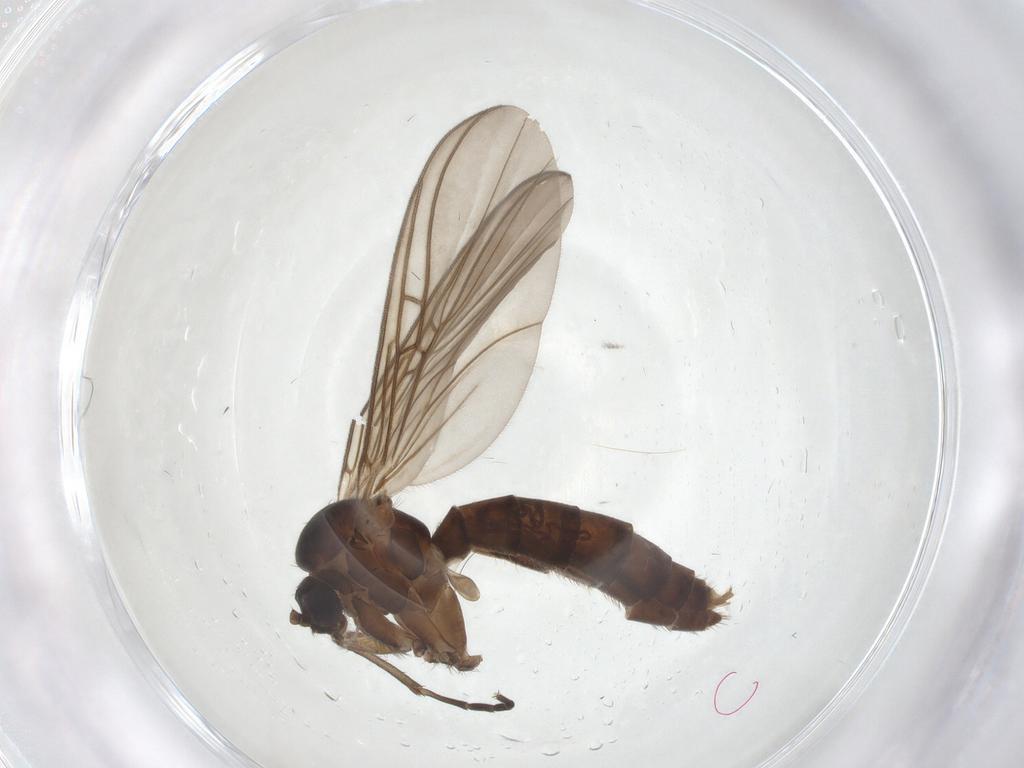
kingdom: Animalia
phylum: Arthropoda
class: Insecta
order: Diptera
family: Mycetophilidae
